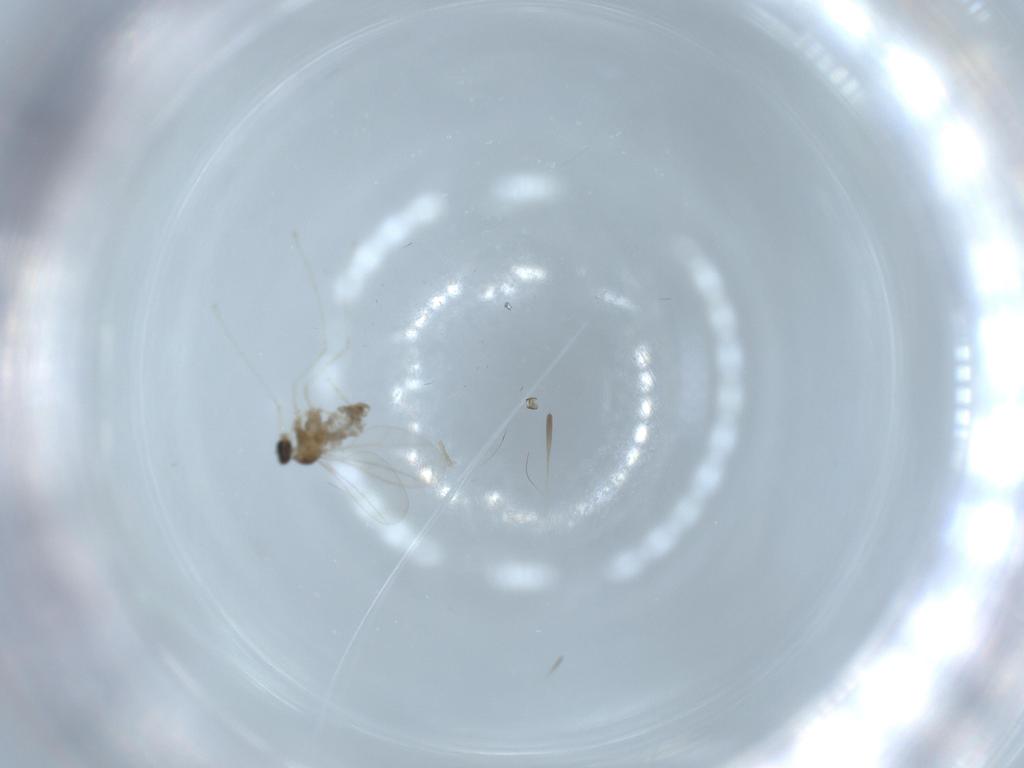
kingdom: Animalia
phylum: Arthropoda
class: Insecta
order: Diptera
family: Cecidomyiidae
